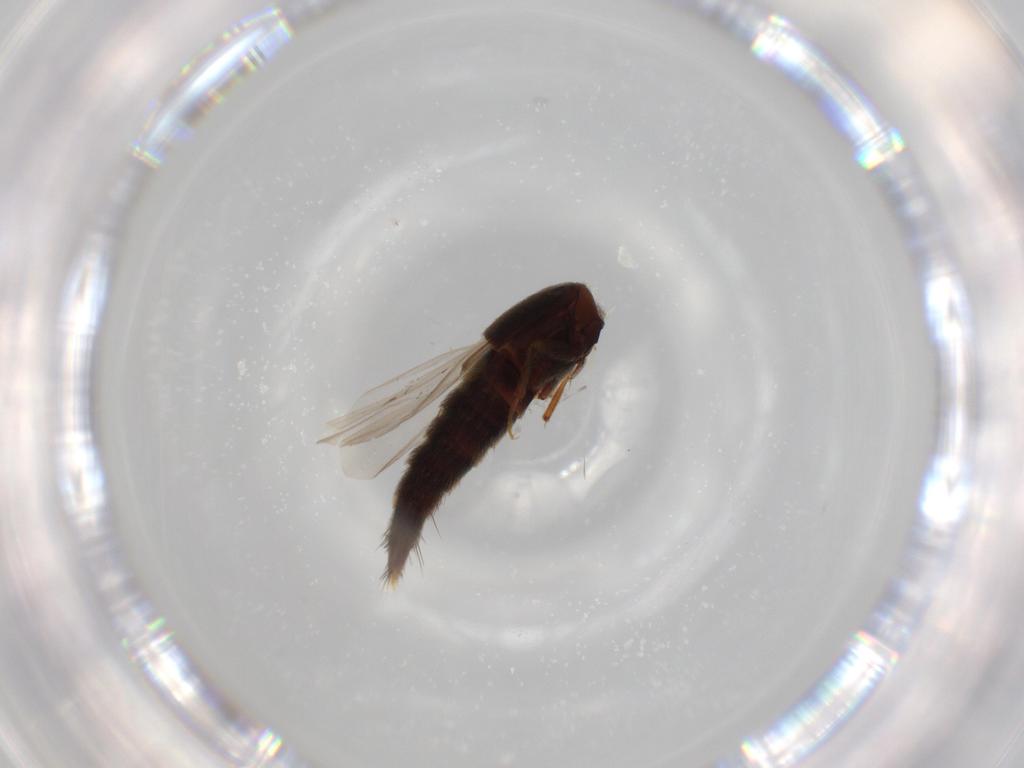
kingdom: Animalia
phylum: Arthropoda
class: Insecta
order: Coleoptera
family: Staphylinidae
